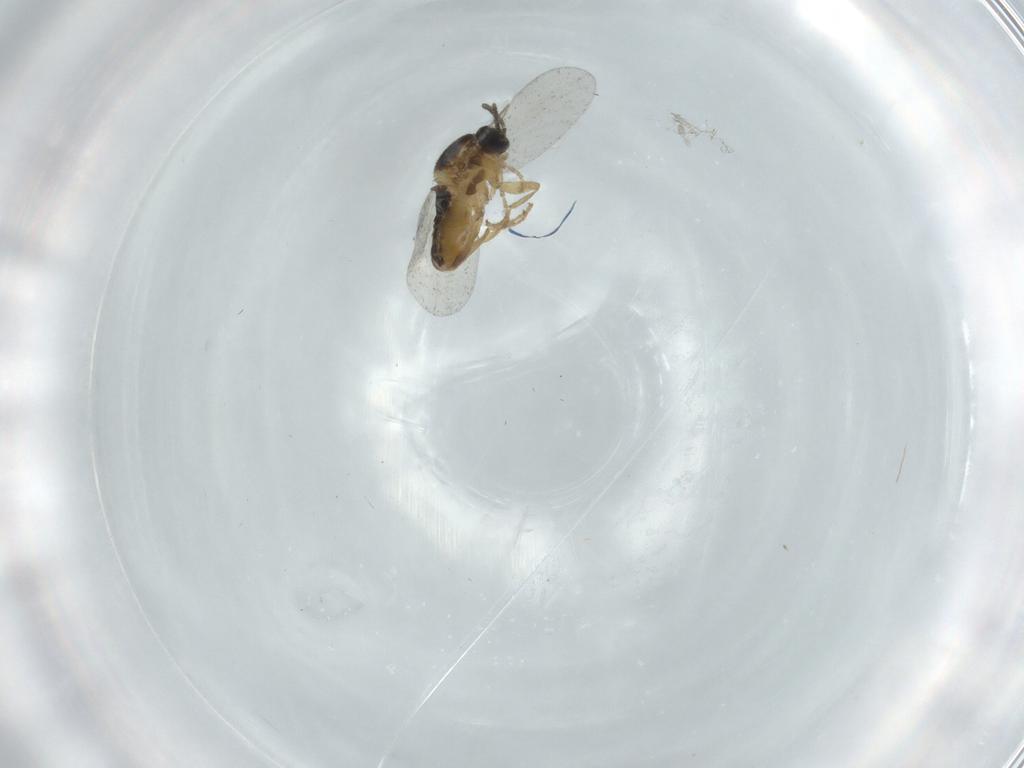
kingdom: Animalia
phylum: Arthropoda
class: Insecta
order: Diptera
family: Scatopsidae
